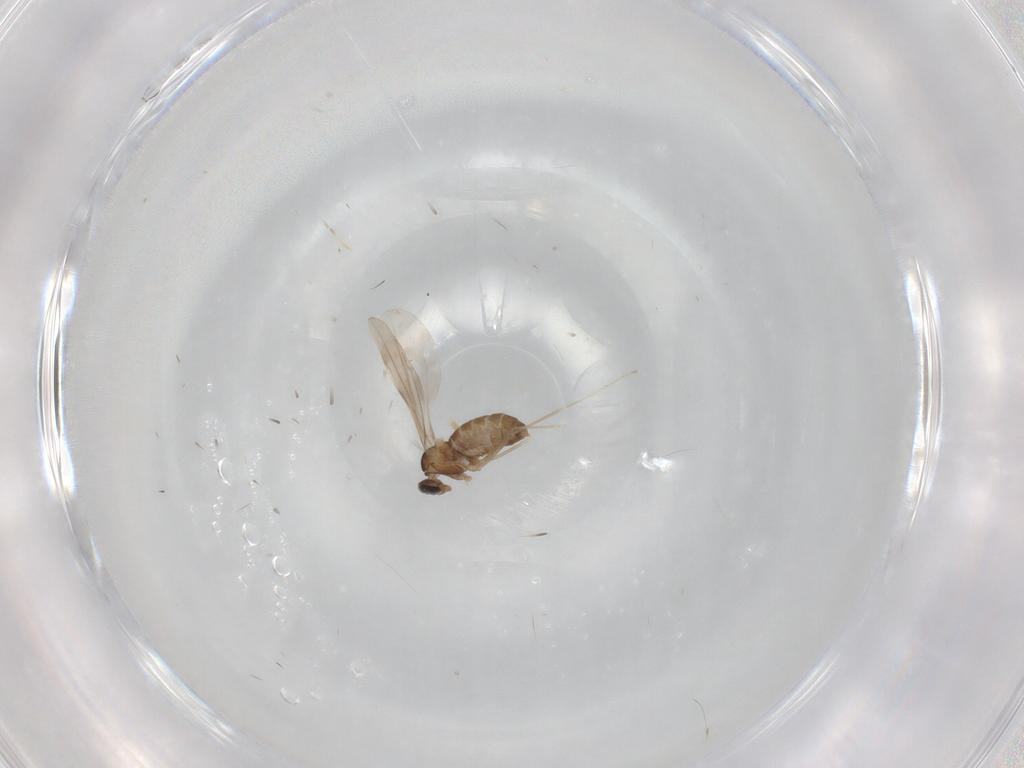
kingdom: Animalia
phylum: Arthropoda
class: Insecta
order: Diptera
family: Cecidomyiidae
